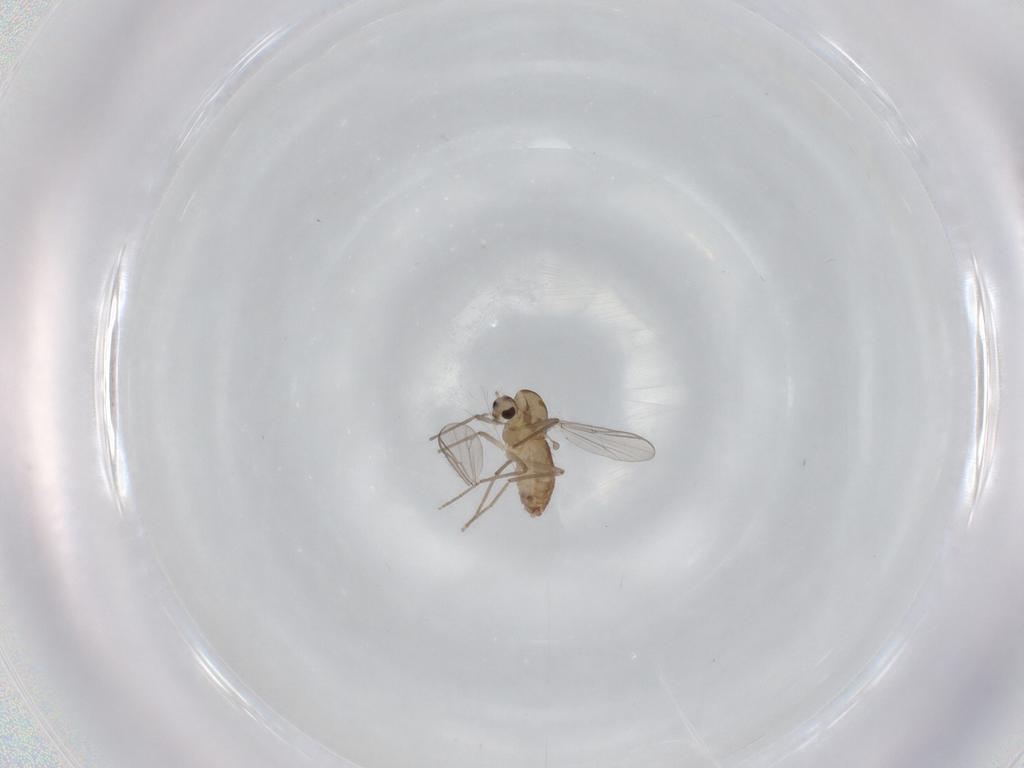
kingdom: Animalia
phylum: Arthropoda
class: Insecta
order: Diptera
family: Chironomidae
